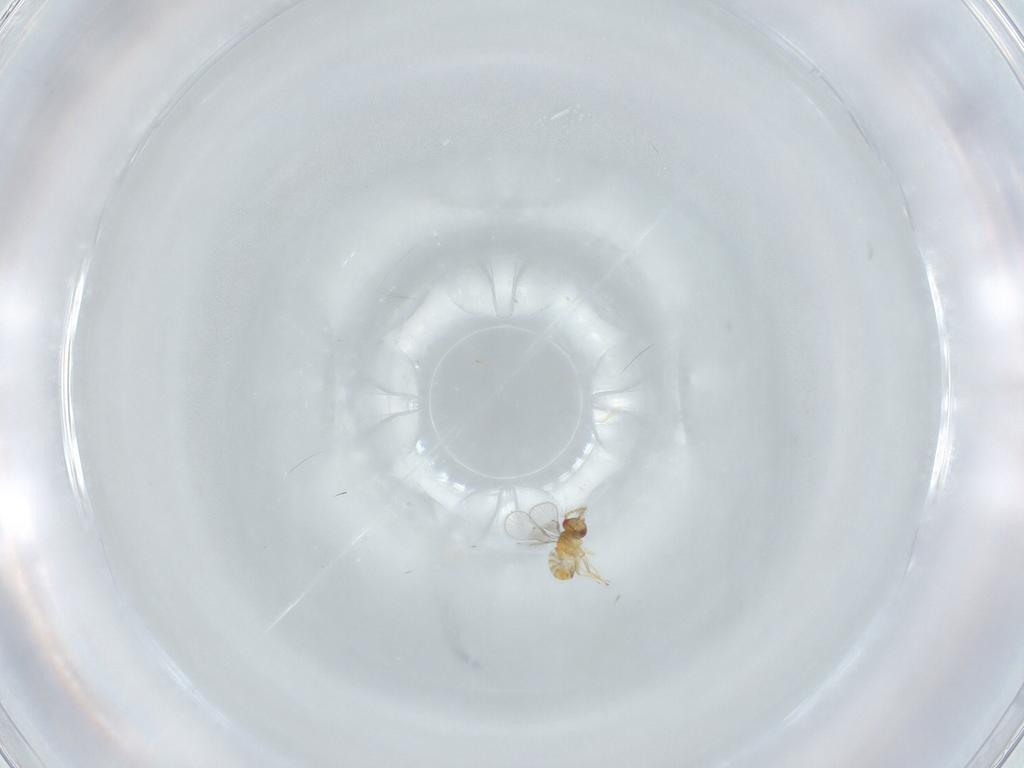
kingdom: Animalia
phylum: Arthropoda
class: Insecta
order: Hymenoptera
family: Trichogrammatidae
